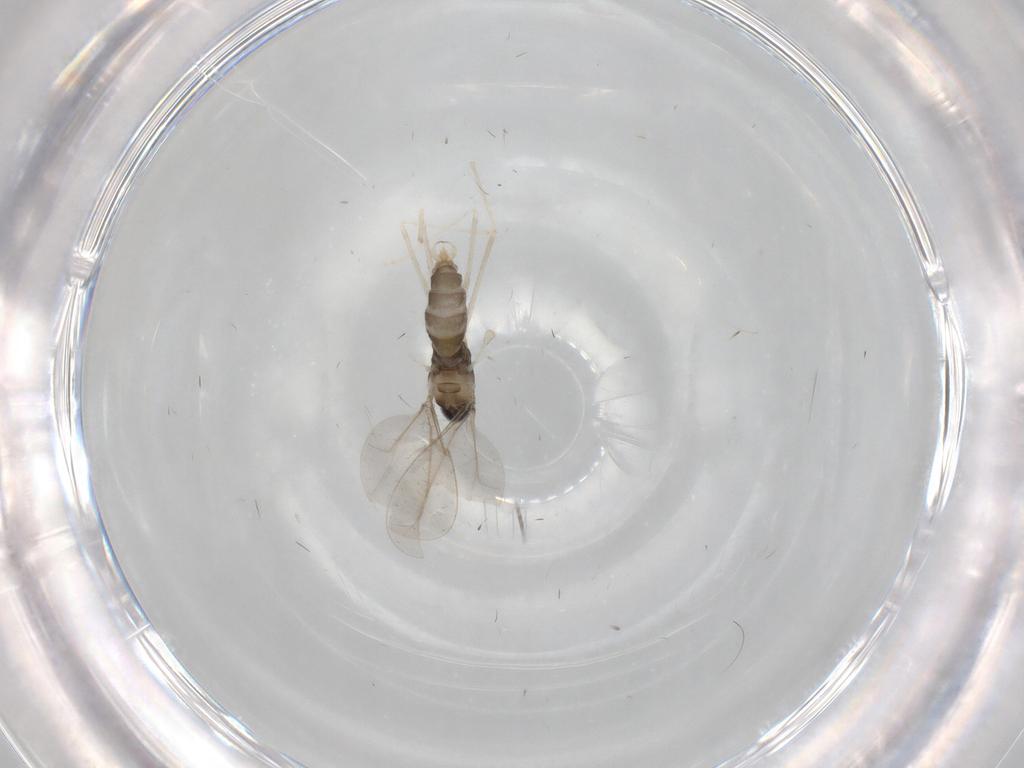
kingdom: Animalia
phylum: Arthropoda
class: Insecta
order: Diptera
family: Cecidomyiidae
